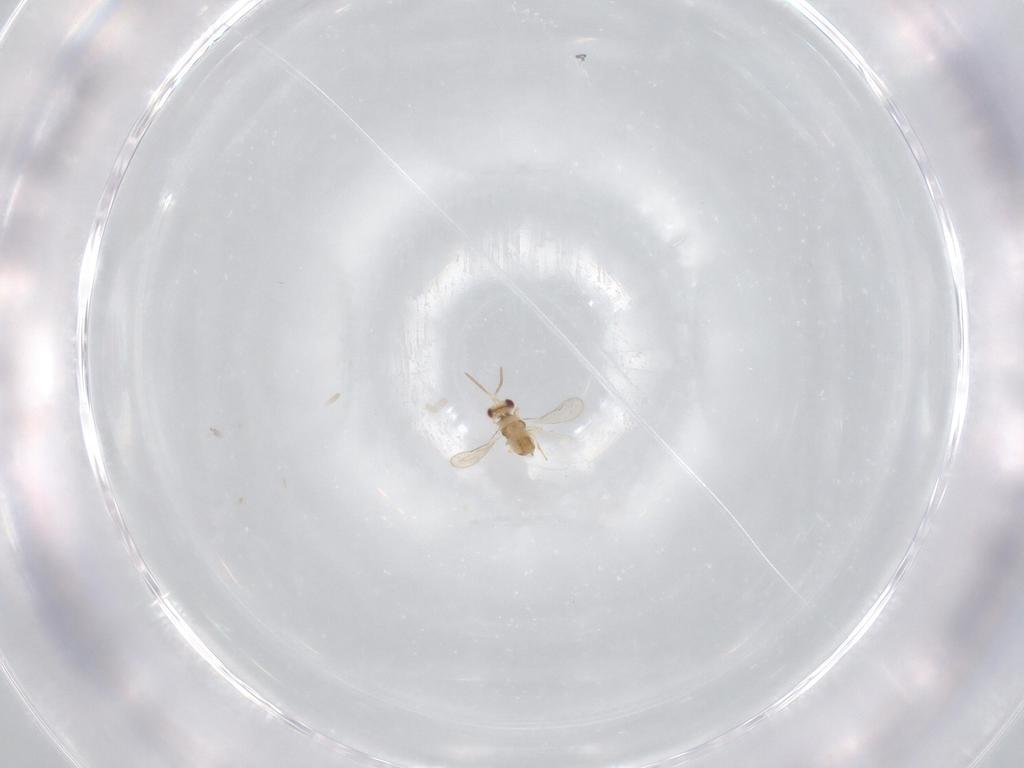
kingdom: Animalia
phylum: Arthropoda
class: Insecta
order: Hymenoptera
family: Aphelinidae
